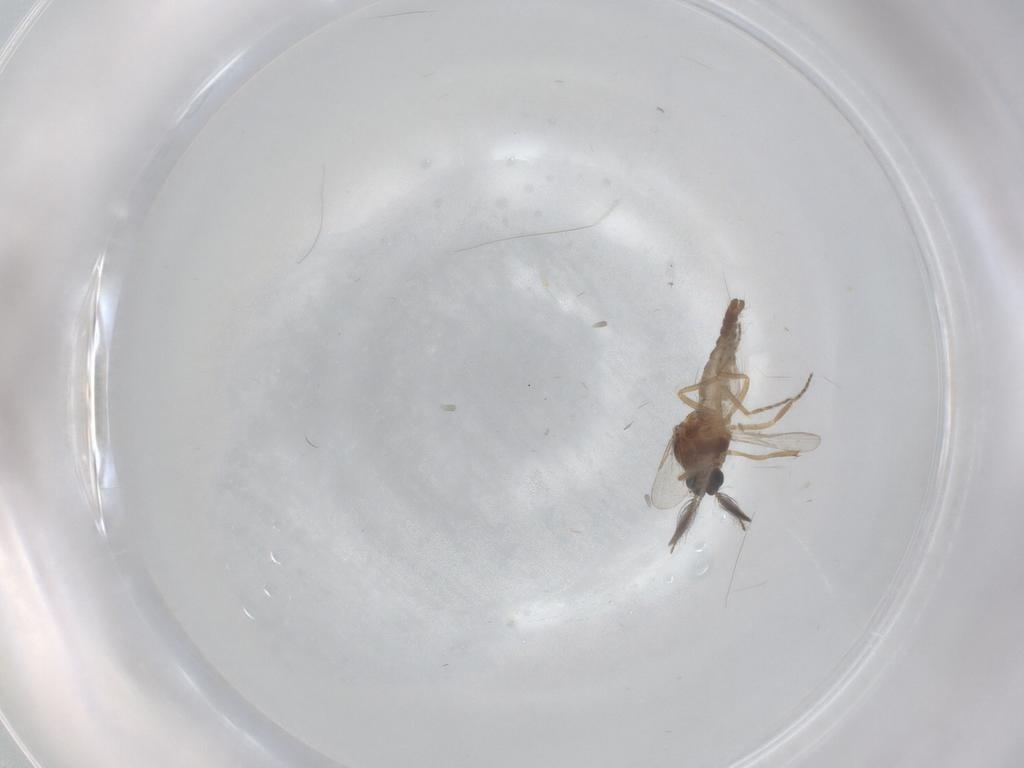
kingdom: Animalia
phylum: Arthropoda
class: Insecta
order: Diptera
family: Ceratopogonidae
